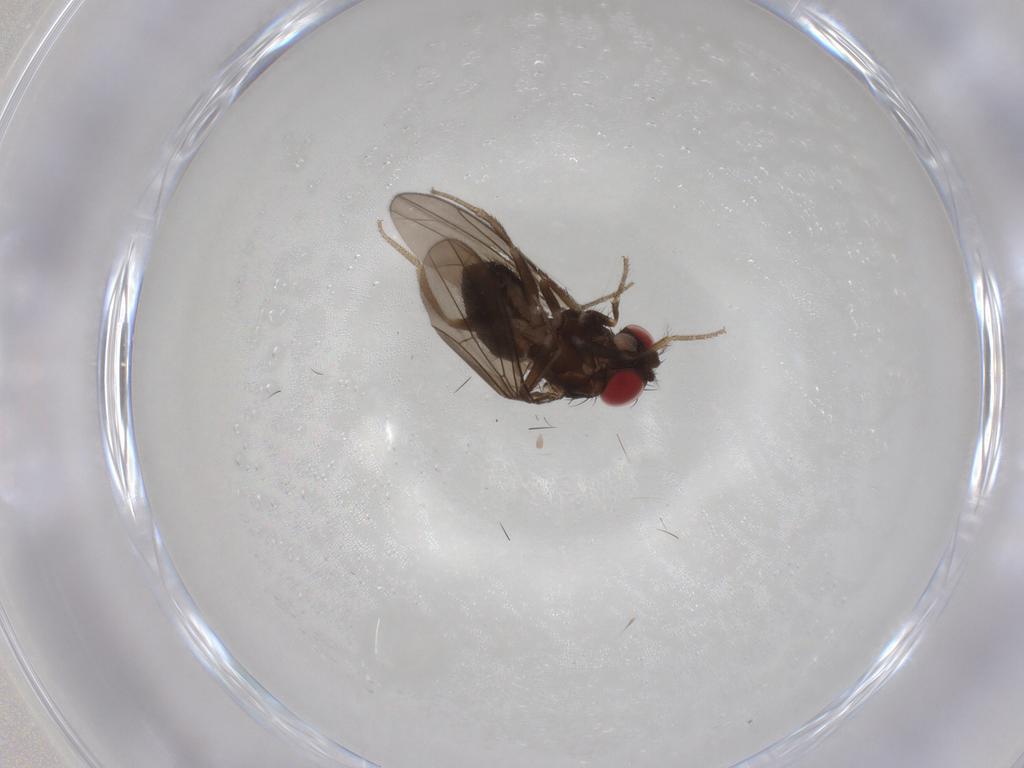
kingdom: Animalia
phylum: Arthropoda
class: Insecta
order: Diptera
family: Drosophilidae
